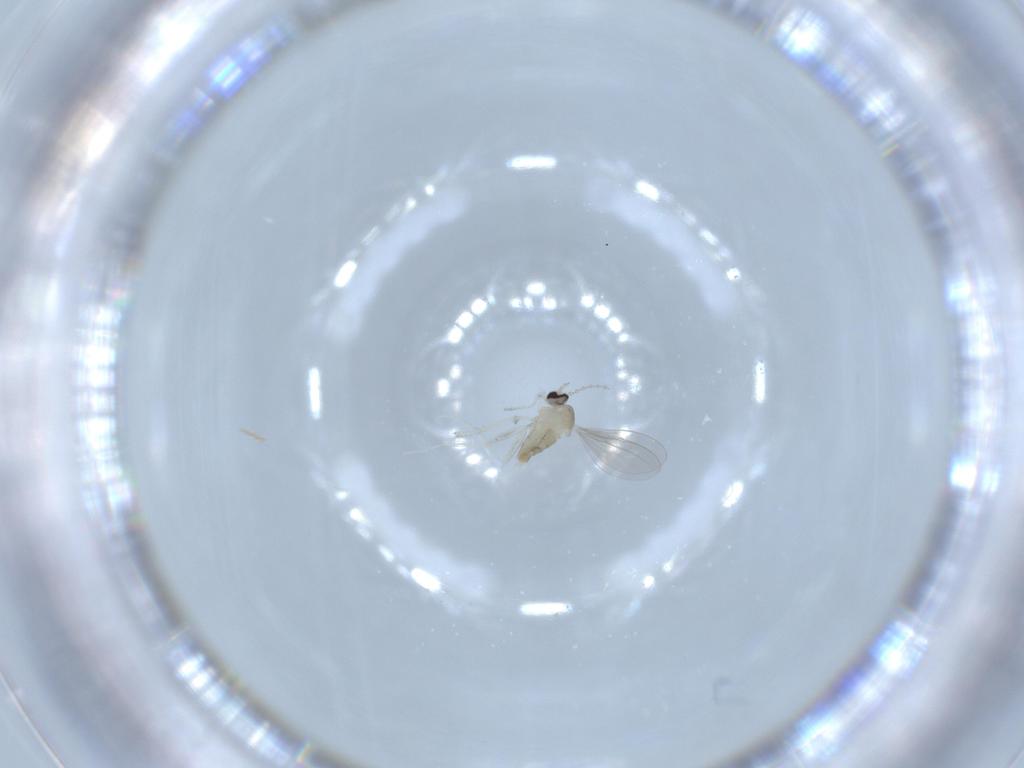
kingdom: Animalia
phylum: Arthropoda
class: Insecta
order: Diptera
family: Cecidomyiidae
